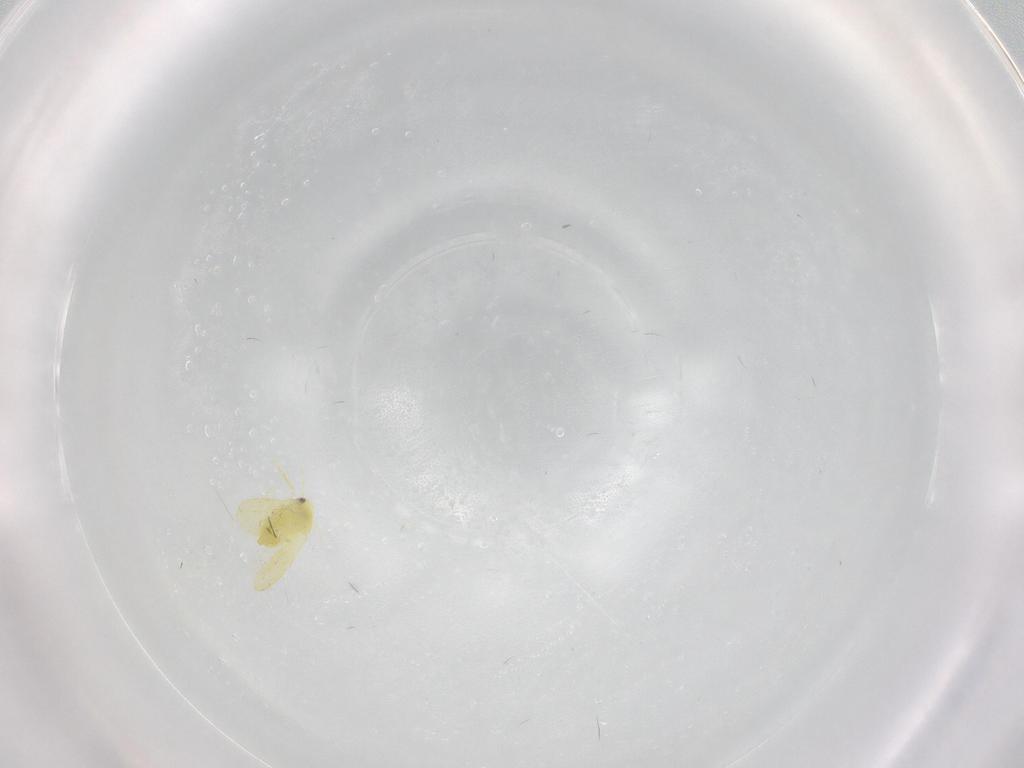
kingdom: Animalia
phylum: Arthropoda
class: Insecta
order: Hemiptera
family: Aleyrodidae
